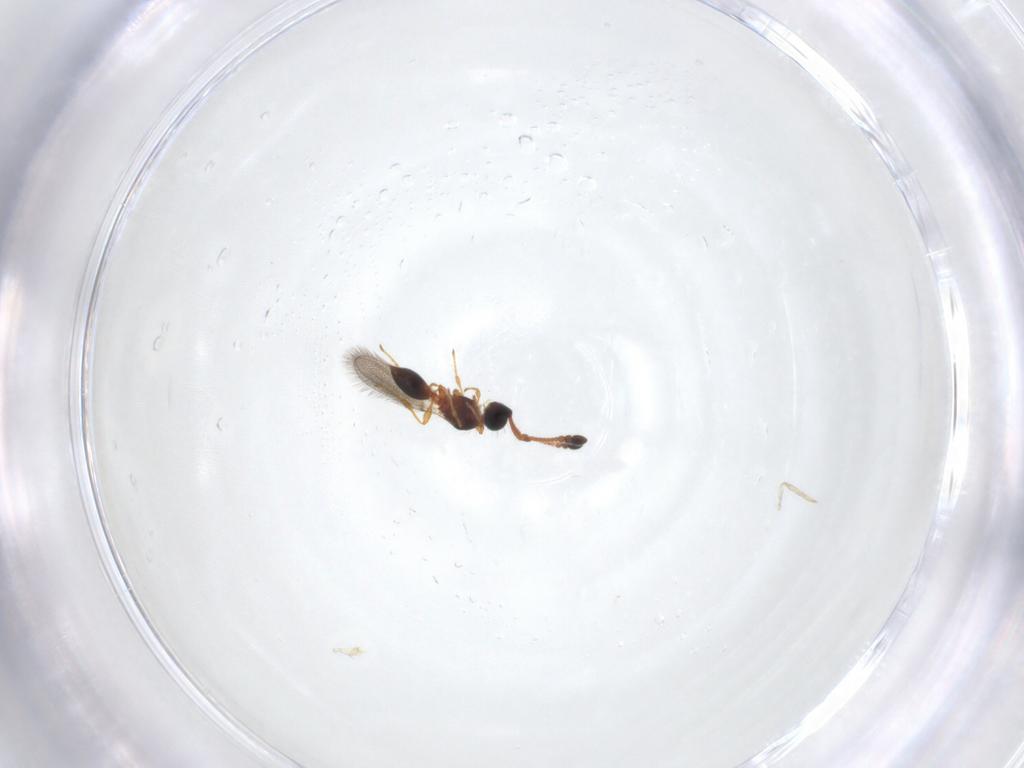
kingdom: Animalia
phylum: Arthropoda
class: Insecta
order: Hymenoptera
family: Diapriidae
